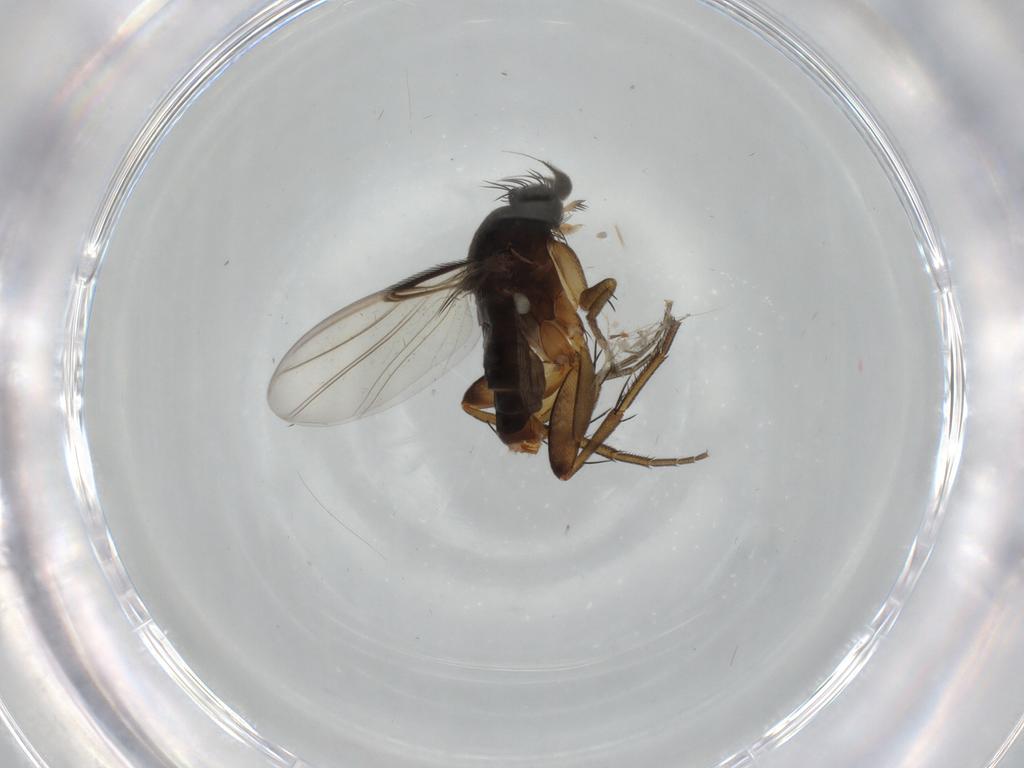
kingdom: Animalia
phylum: Arthropoda
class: Insecta
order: Diptera
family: Phoridae
